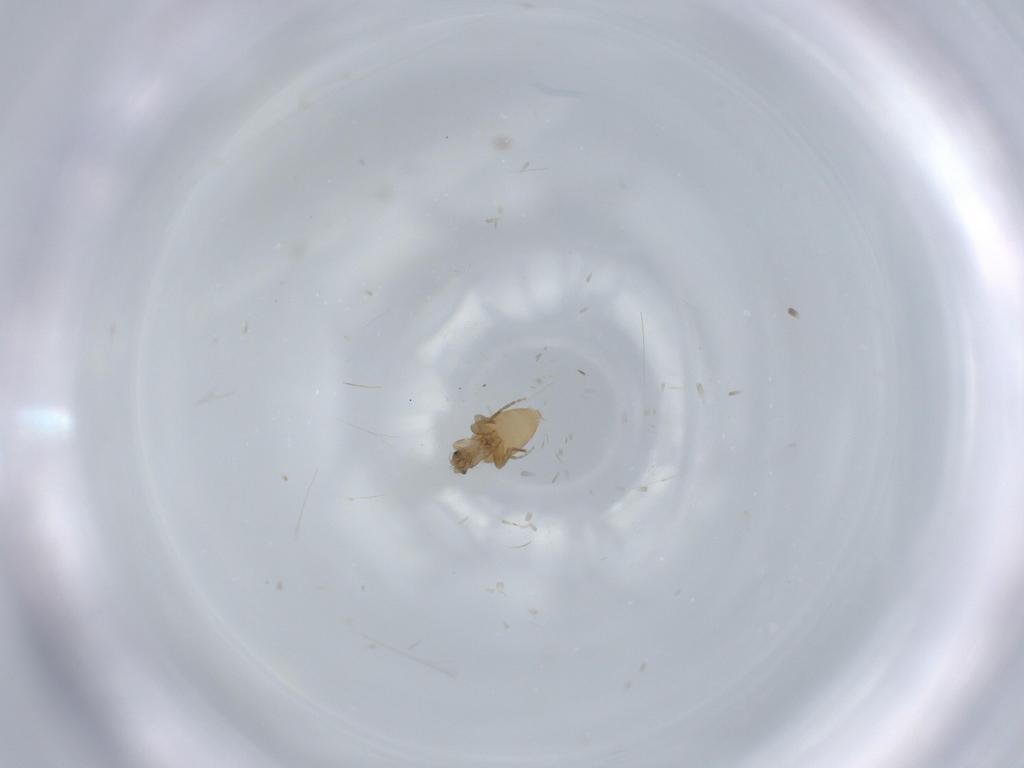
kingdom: Animalia
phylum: Arthropoda
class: Insecta
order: Diptera
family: Phoridae
